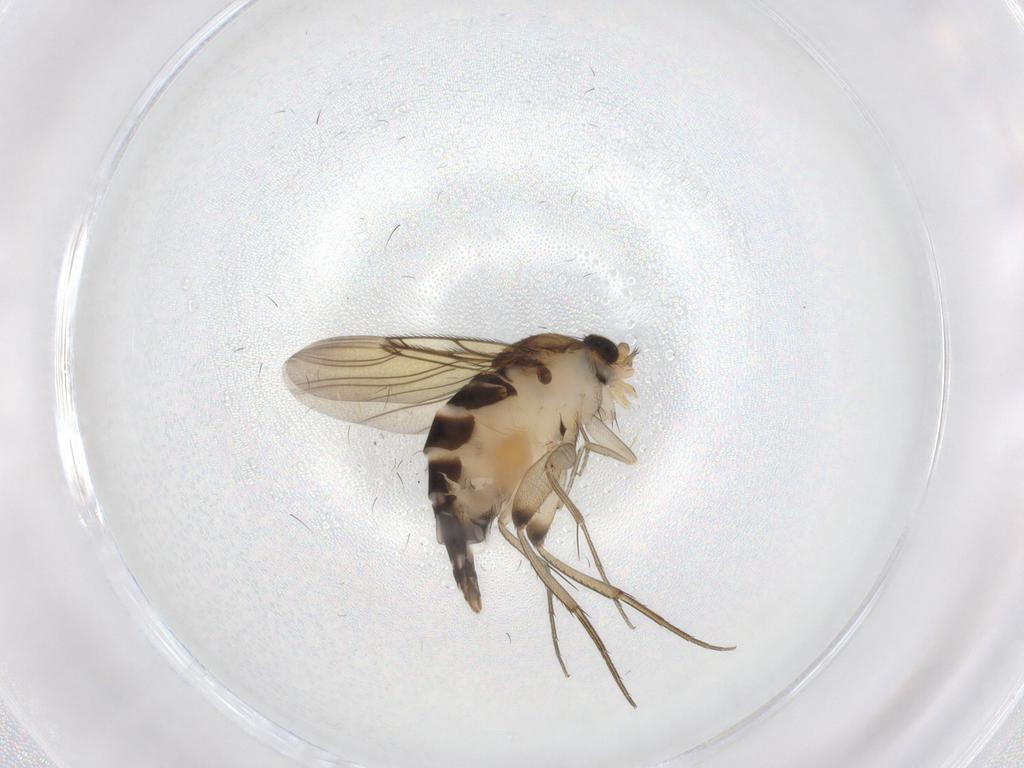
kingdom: Animalia
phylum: Arthropoda
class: Insecta
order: Diptera
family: Phoridae
